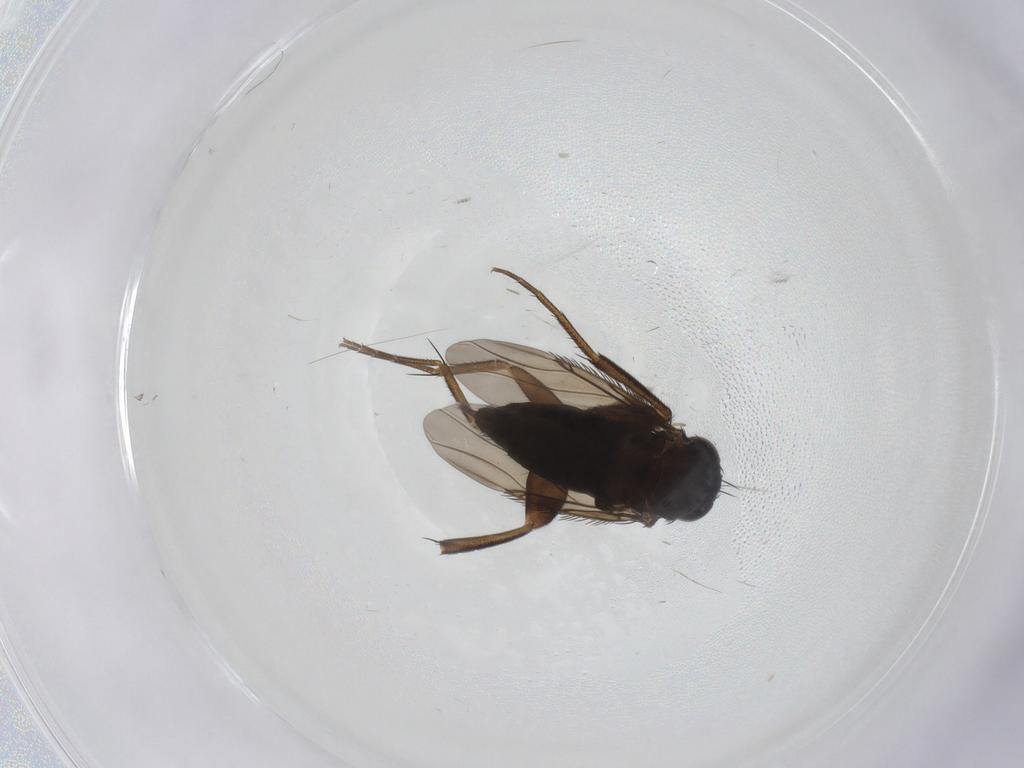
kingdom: Animalia
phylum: Arthropoda
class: Insecta
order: Diptera
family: Phoridae
